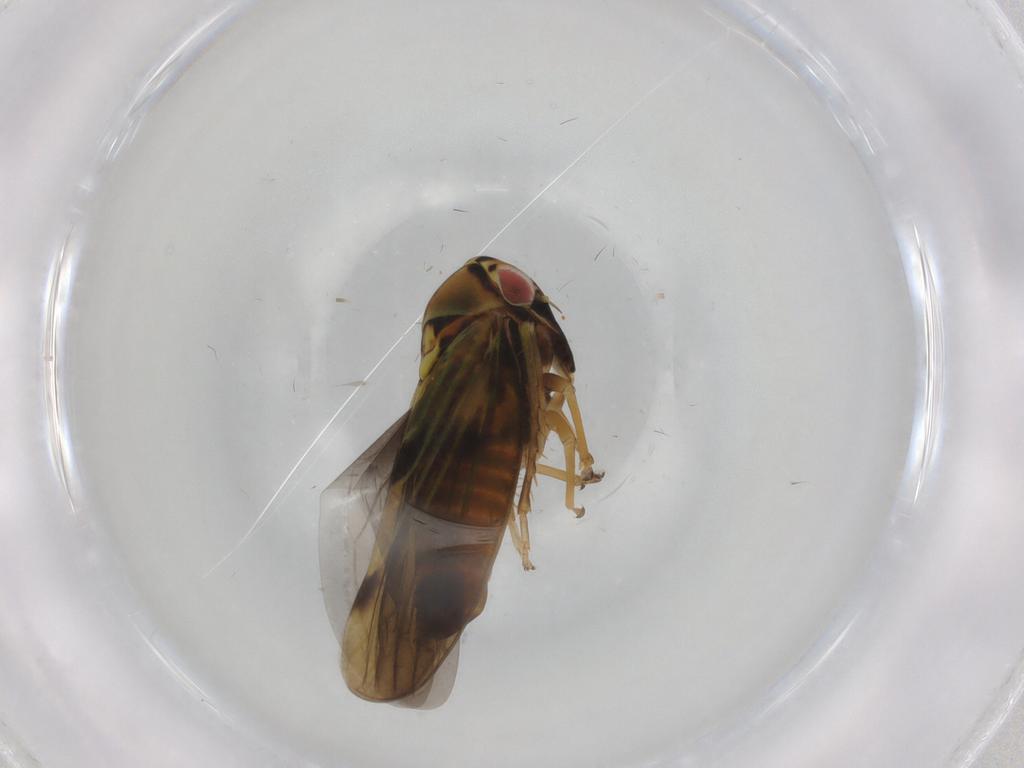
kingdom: Animalia
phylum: Arthropoda
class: Insecta
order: Hemiptera
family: Cicadellidae
